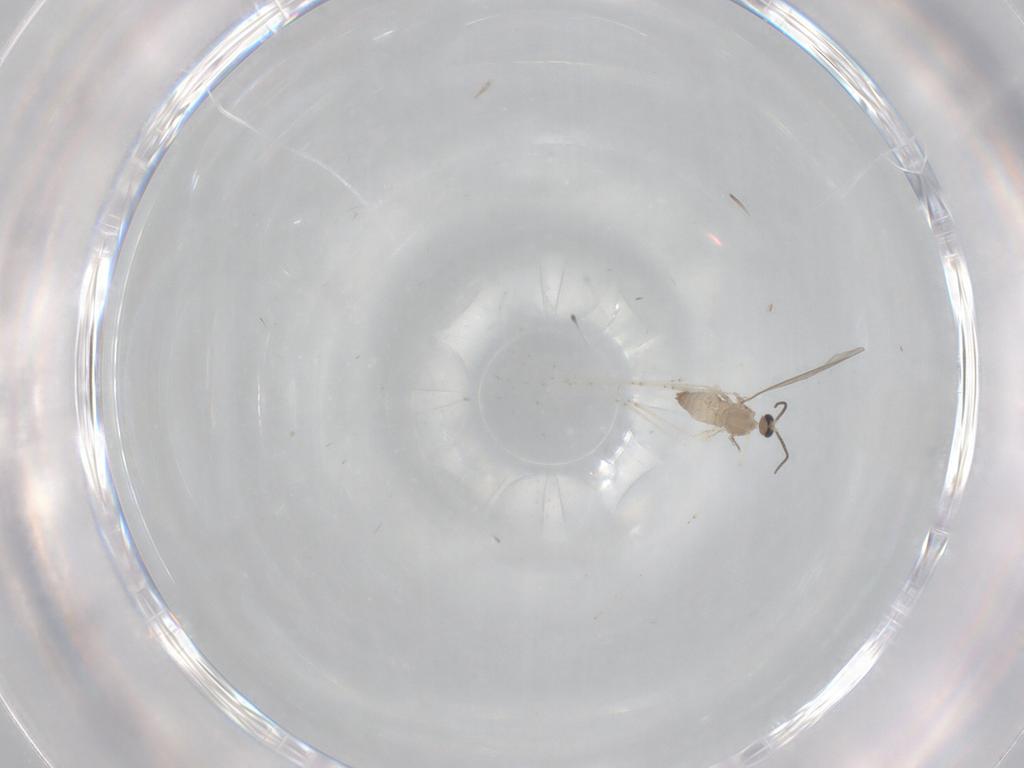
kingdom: Animalia
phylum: Arthropoda
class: Insecta
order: Diptera
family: Cecidomyiidae
